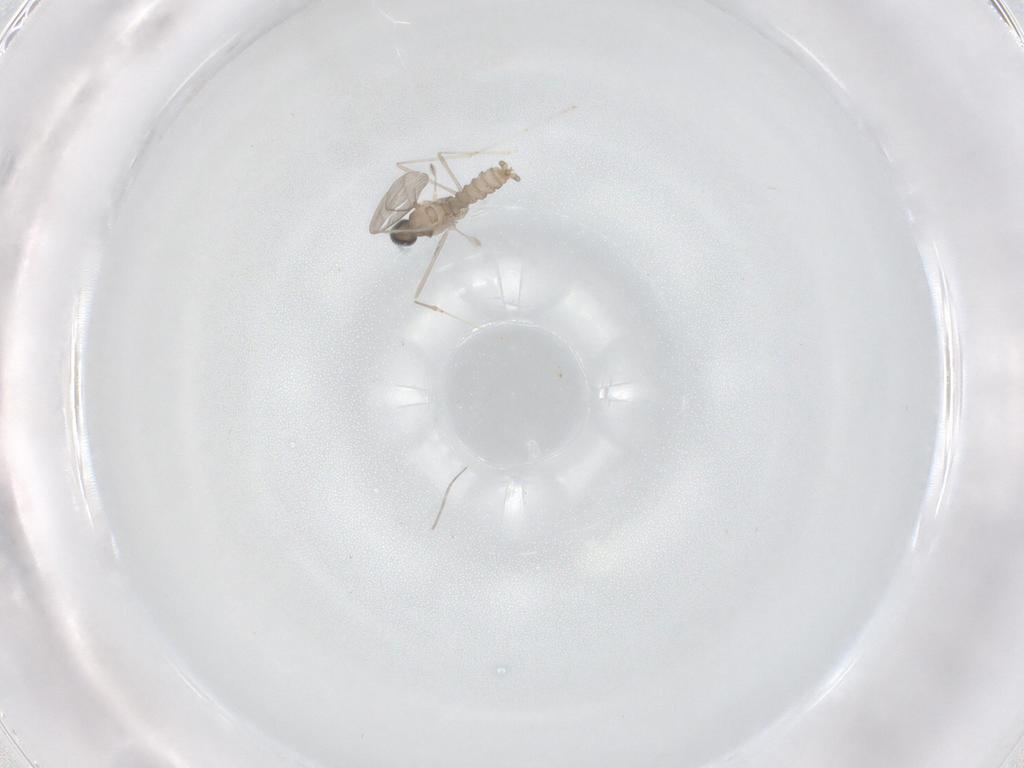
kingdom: Animalia
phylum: Arthropoda
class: Insecta
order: Diptera
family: Cecidomyiidae
